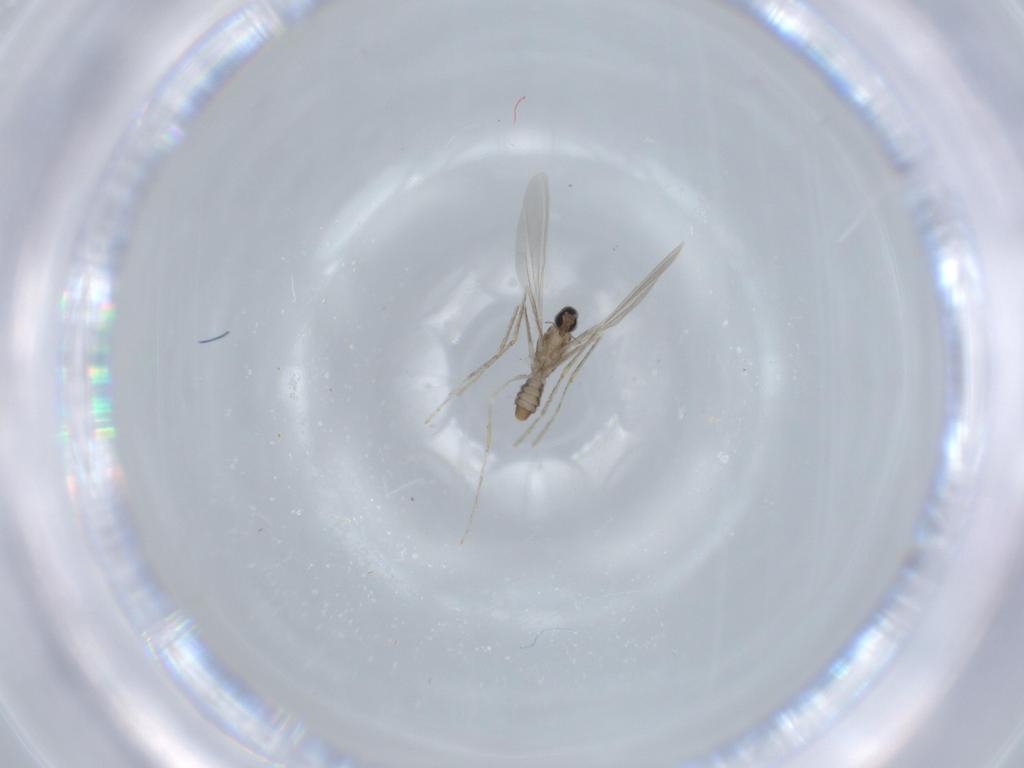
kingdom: Animalia
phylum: Arthropoda
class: Insecta
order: Diptera
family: Cecidomyiidae
